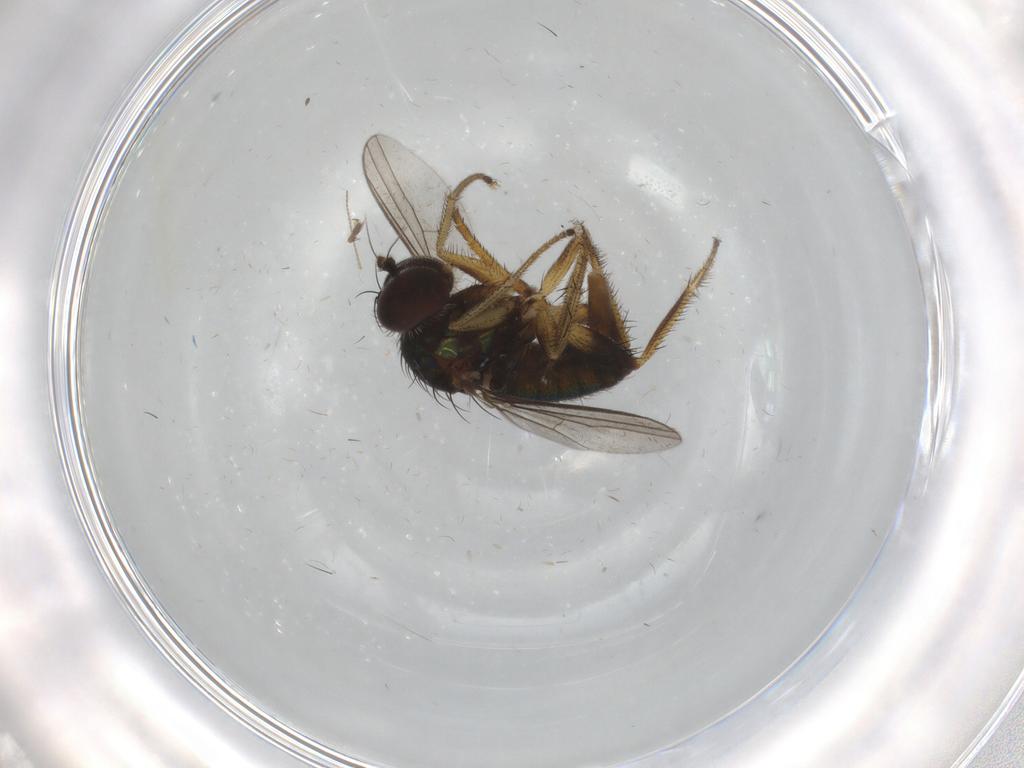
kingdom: Animalia
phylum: Arthropoda
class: Insecta
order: Diptera
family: Dolichopodidae
